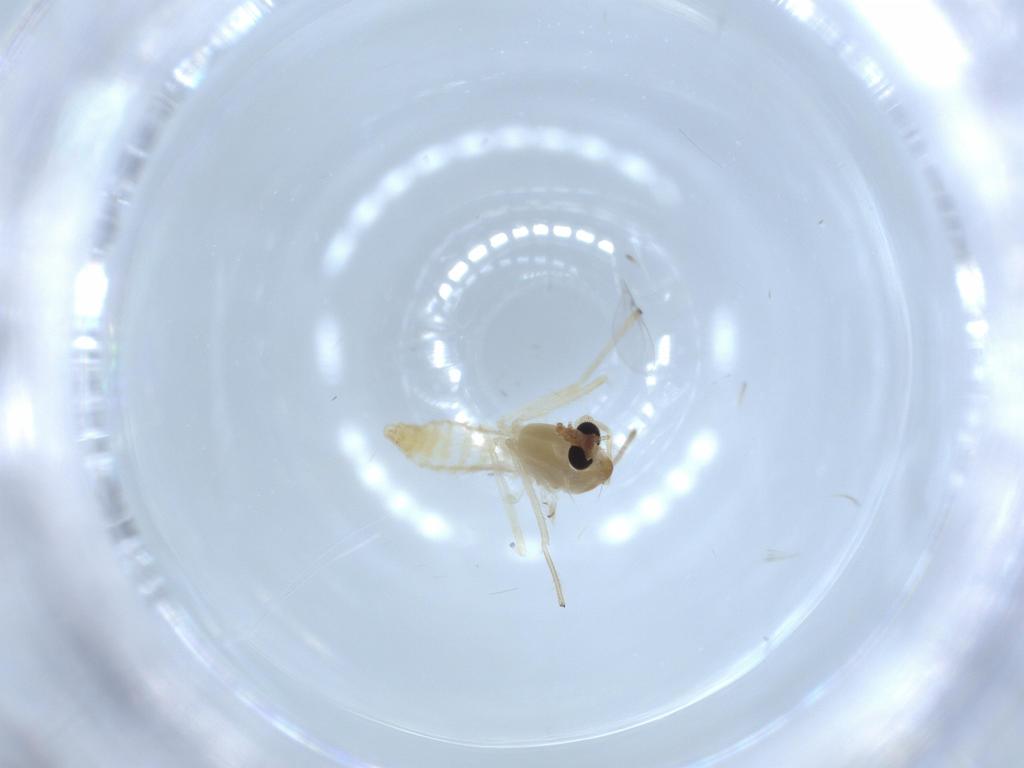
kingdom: Animalia
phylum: Arthropoda
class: Insecta
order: Diptera
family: Chironomidae
